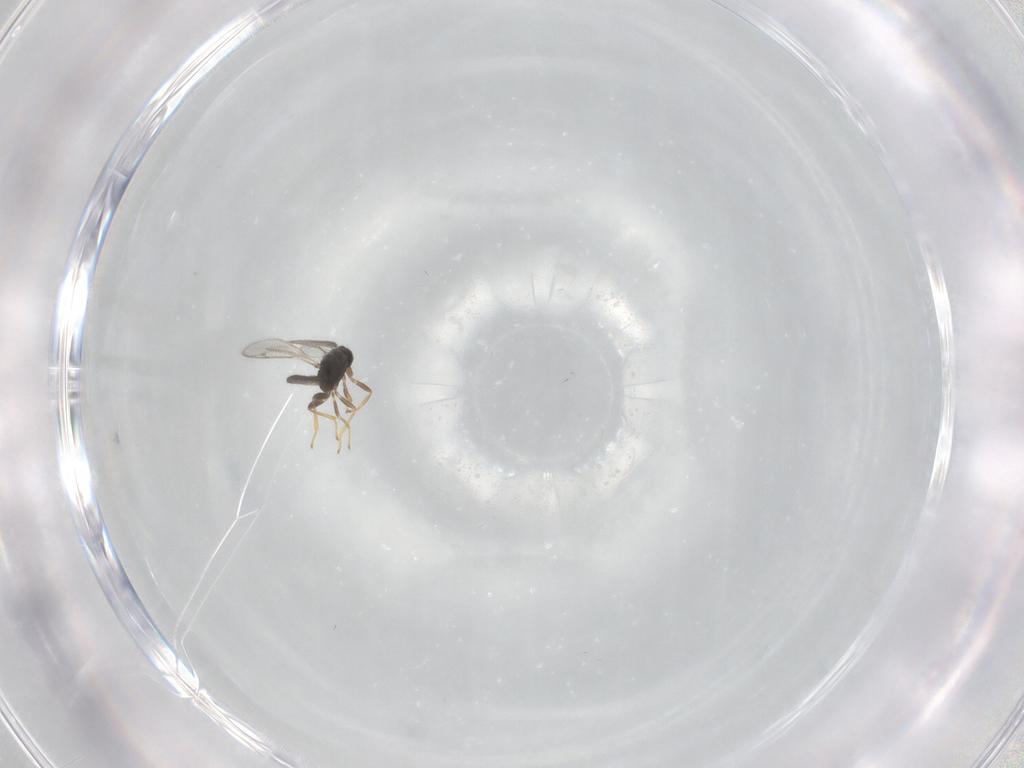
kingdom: Animalia
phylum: Arthropoda
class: Insecta
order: Hymenoptera
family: Eulophidae
